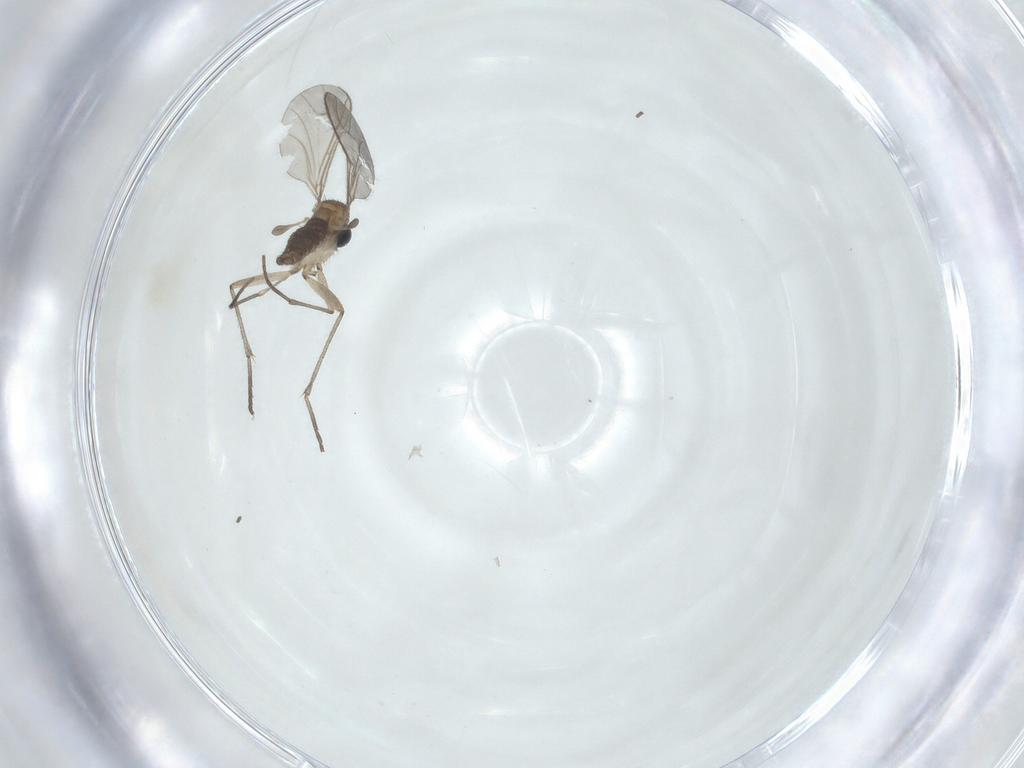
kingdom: Animalia
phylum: Arthropoda
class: Insecta
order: Diptera
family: Sciaridae
